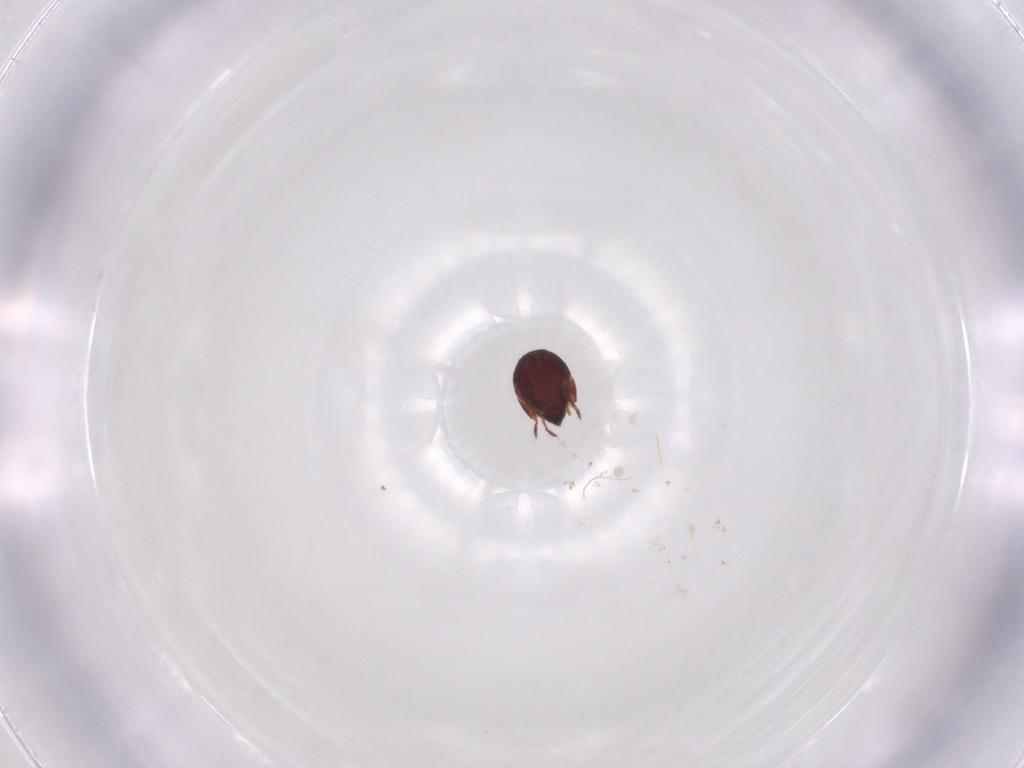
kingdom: Animalia
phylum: Arthropoda
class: Arachnida
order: Sarcoptiformes
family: Humerobatidae
